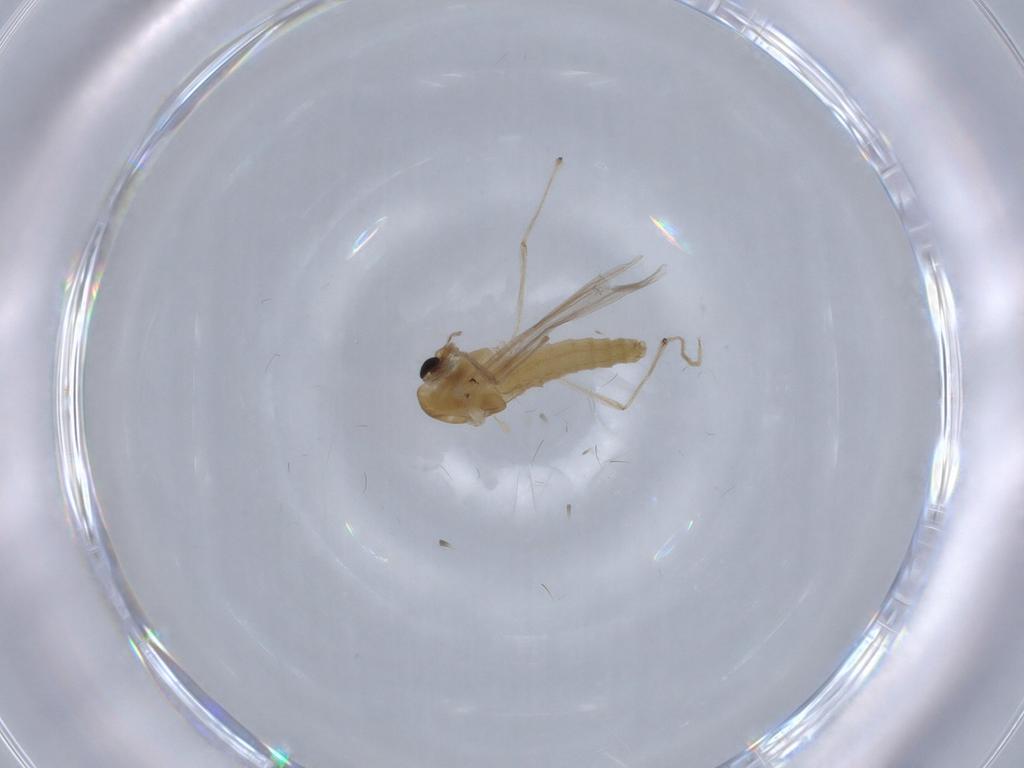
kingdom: Animalia
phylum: Arthropoda
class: Insecta
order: Diptera
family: Chironomidae
